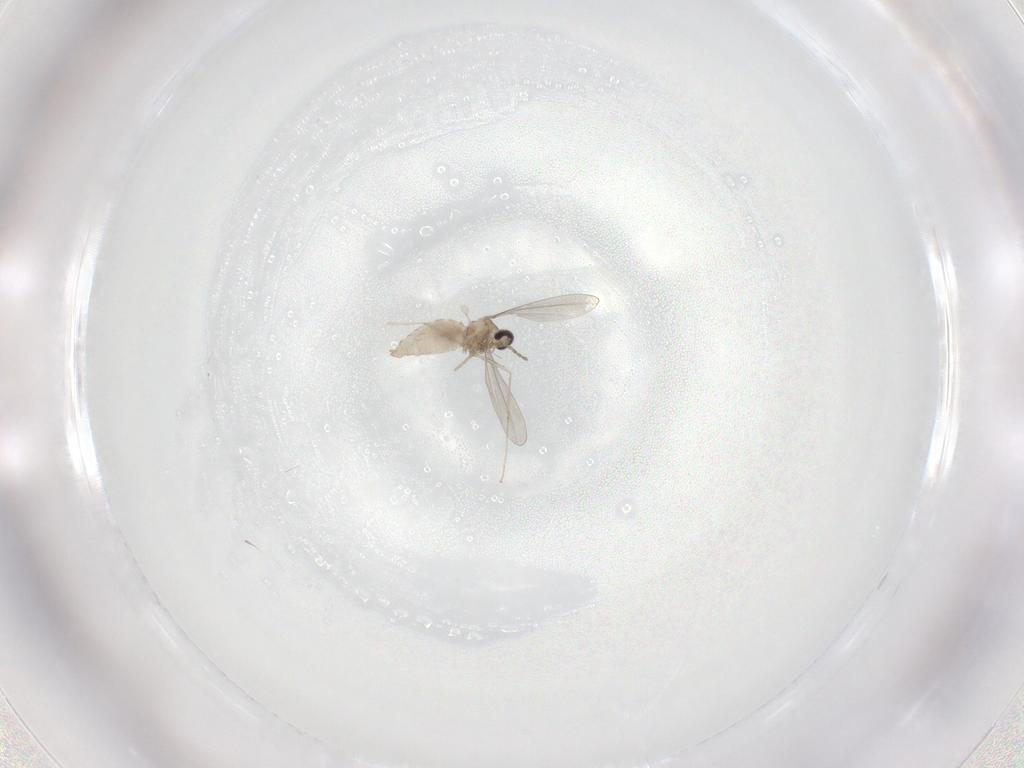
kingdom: Animalia
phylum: Arthropoda
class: Insecta
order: Diptera
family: Cecidomyiidae
